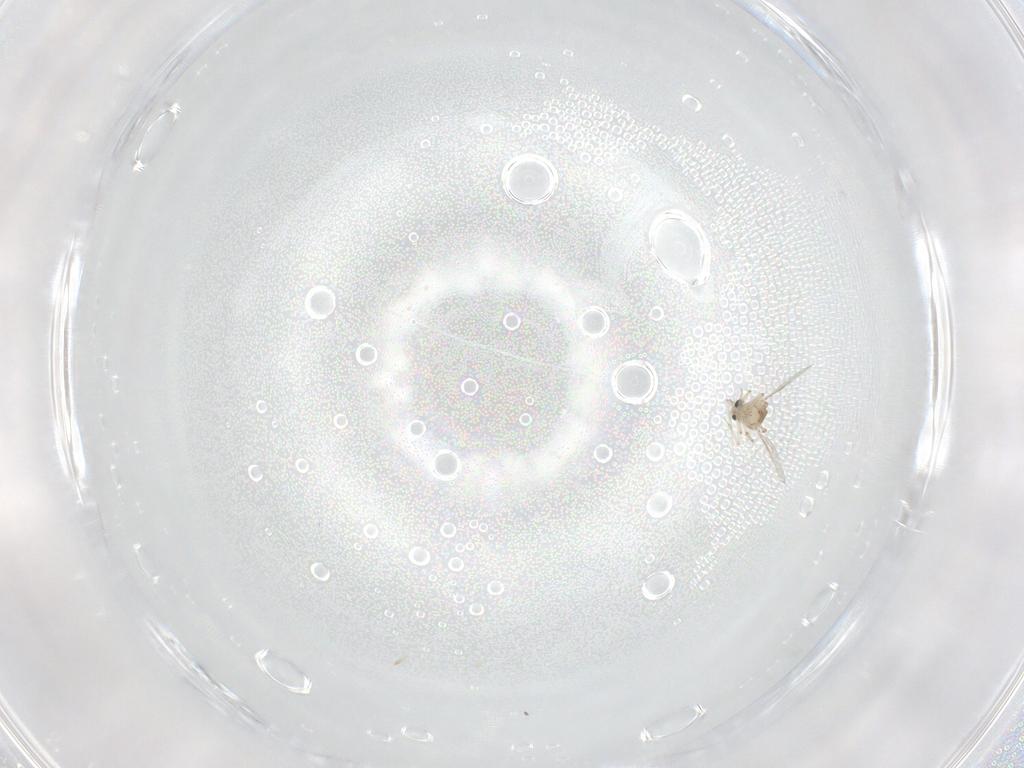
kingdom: Animalia
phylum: Arthropoda
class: Insecta
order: Diptera
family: Ceratopogonidae
